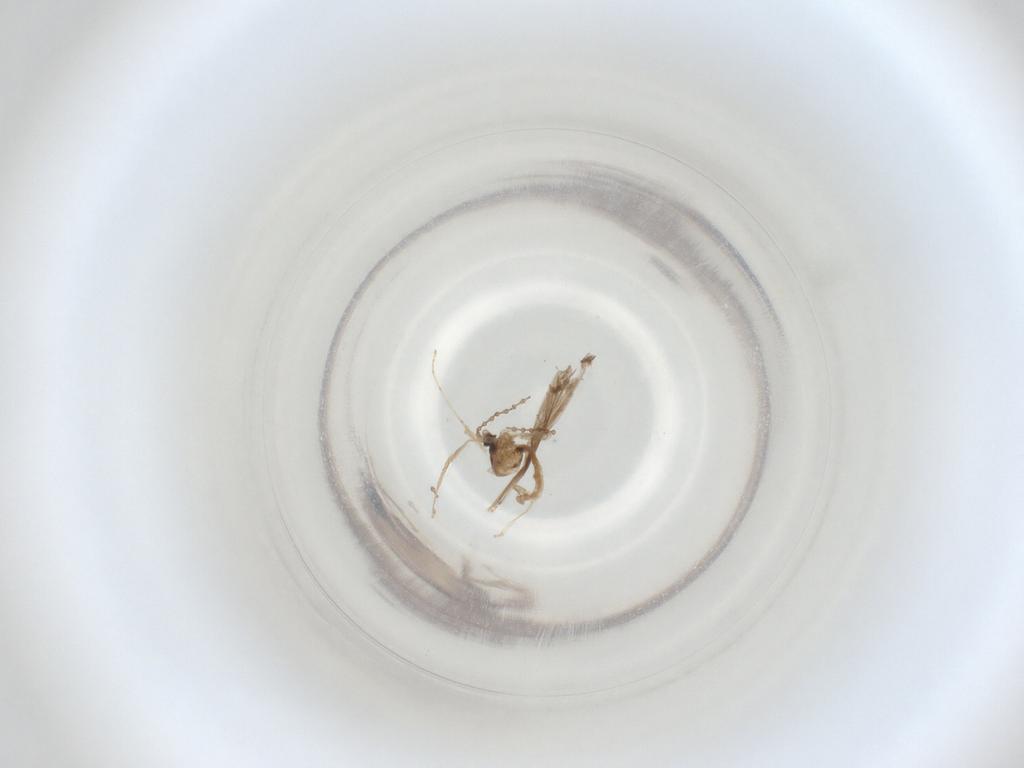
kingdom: Animalia
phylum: Arthropoda
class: Insecta
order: Diptera
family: Cecidomyiidae
